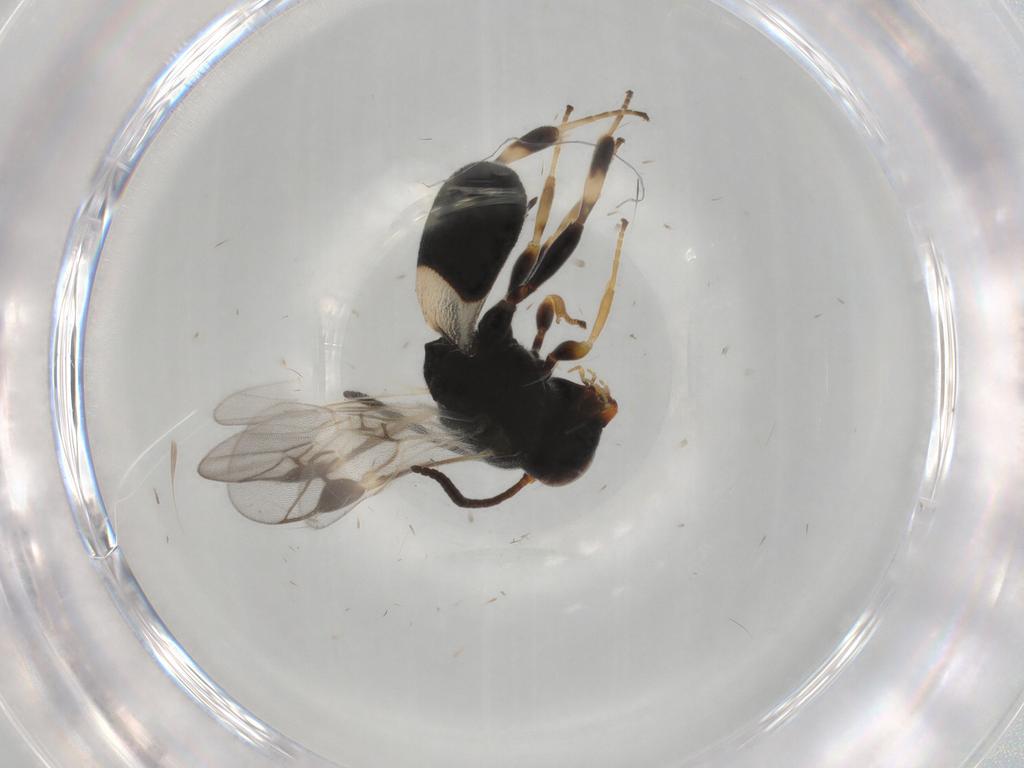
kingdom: Animalia
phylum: Arthropoda
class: Insecta
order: Hymenoptera
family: Braconidae
